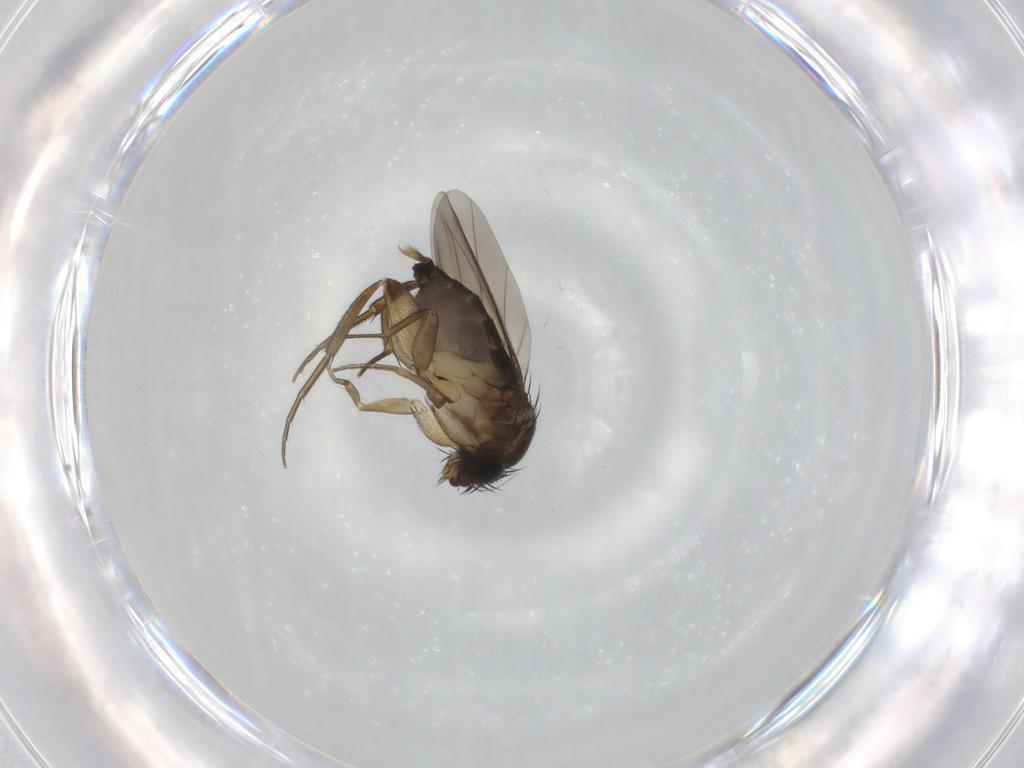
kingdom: Animalia
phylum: Arthropoda
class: Insecta
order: Diptera
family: Phoridae
